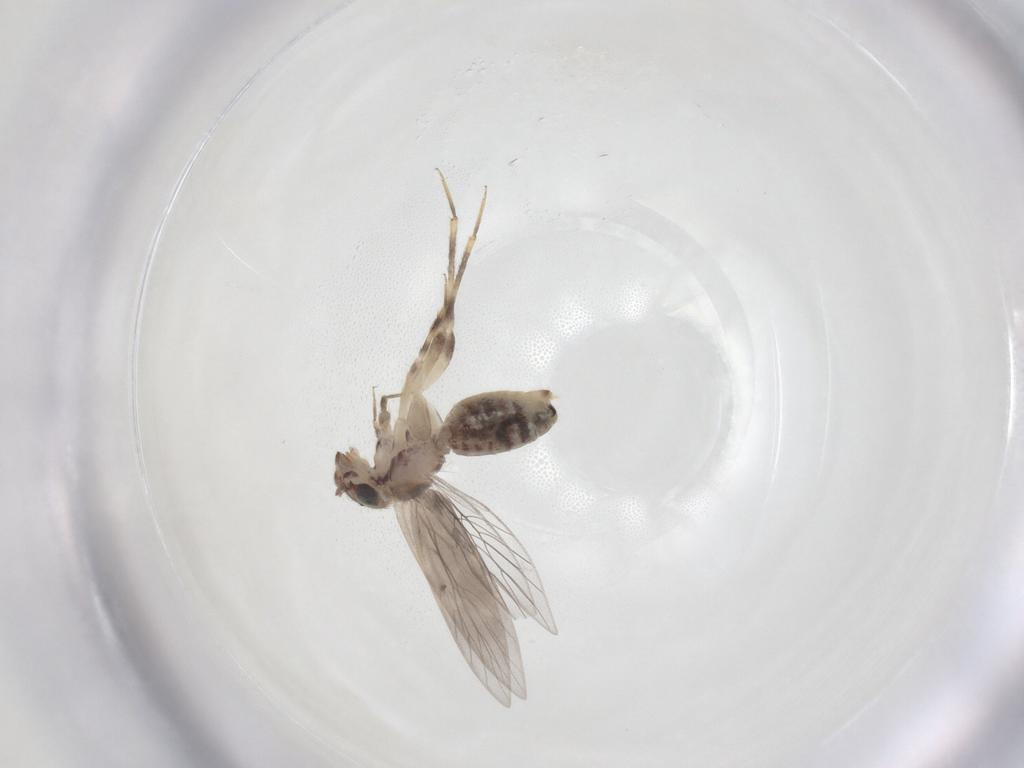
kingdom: Animalia
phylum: Arthropoda
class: Insecta
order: Psocodea
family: Lepidopsocidae
